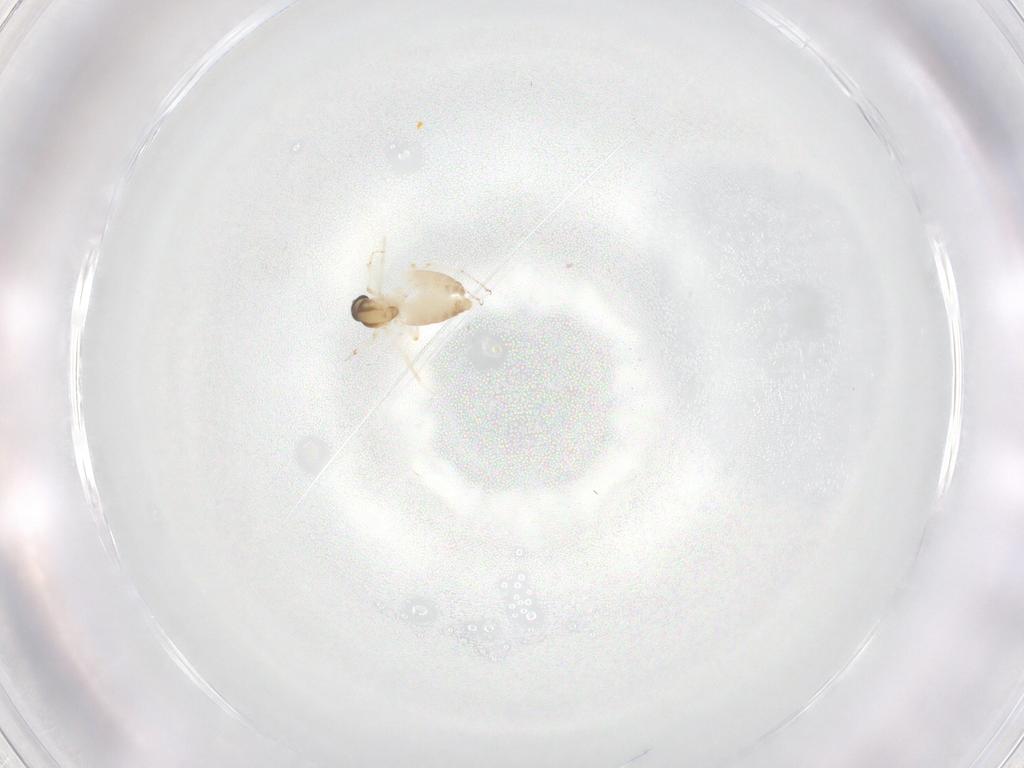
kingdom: Animalia
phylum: Arthropoda
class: Insecta
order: Diptera
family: Ceratopogonidae
